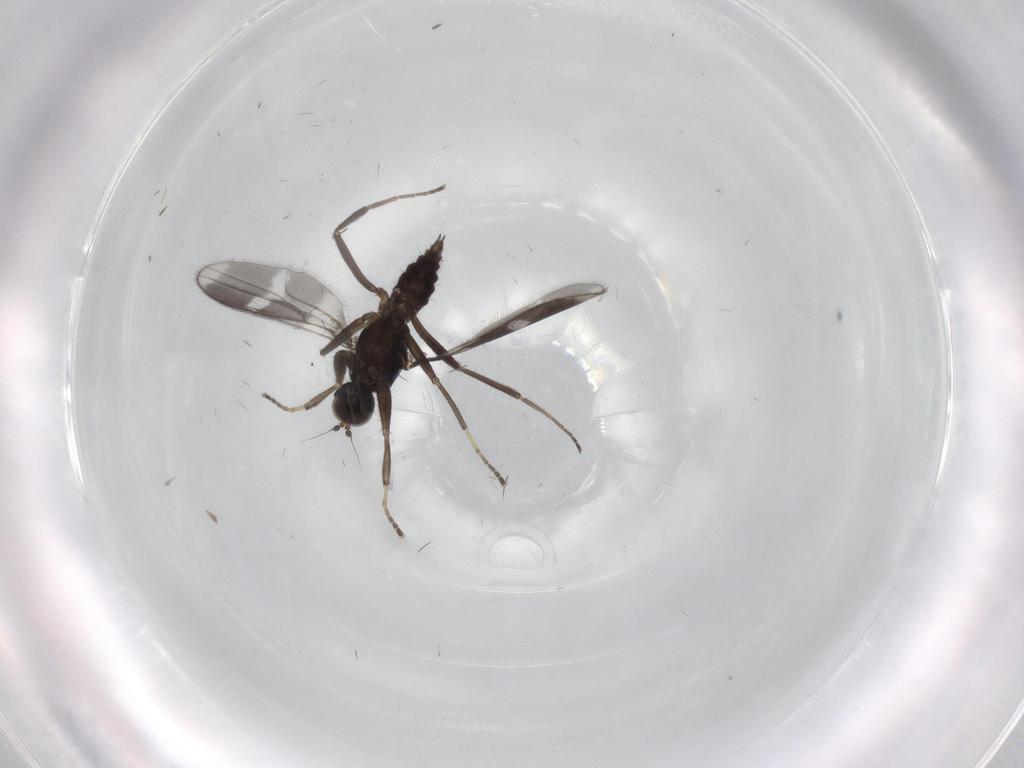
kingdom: Animalia
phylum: Arthropoda
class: Insecta
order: Diptera
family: Hybotidae
